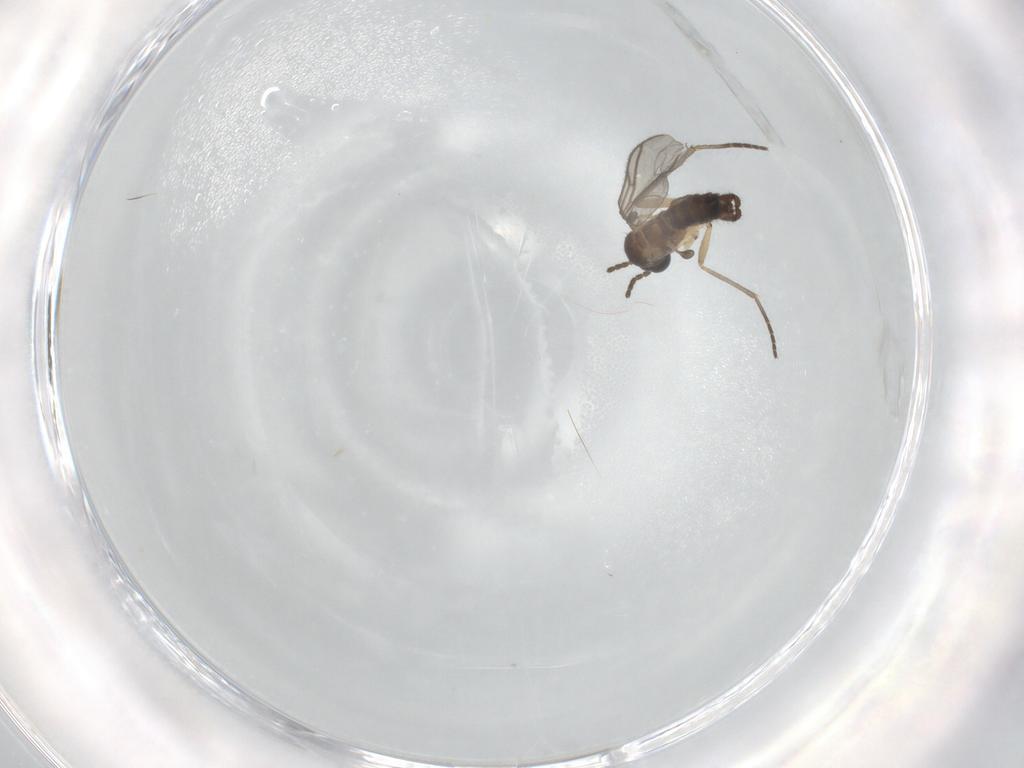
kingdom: Animalia
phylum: Arthropoda
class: Insecta
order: Diptera
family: Sciaridae
